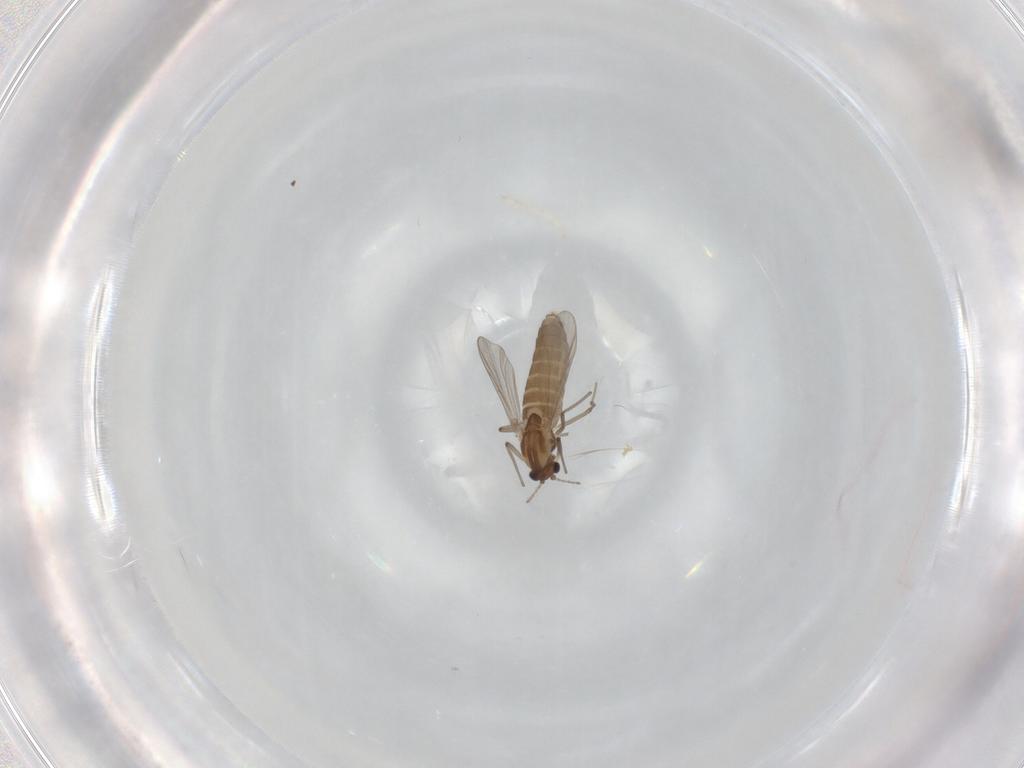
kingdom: Animalia
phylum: Arthropoda
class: Insecta
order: Diptera
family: Chironomidae
